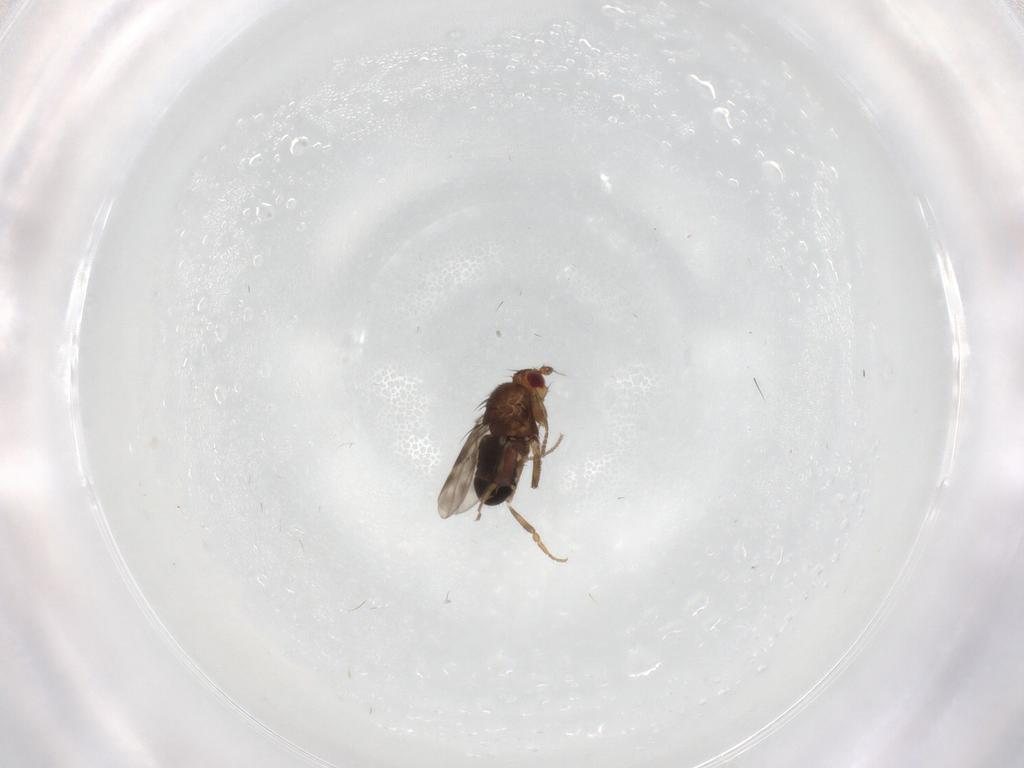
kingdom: Animalia
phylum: Arthropoda
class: Insecta
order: Diptera
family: Sphaeroceridae
